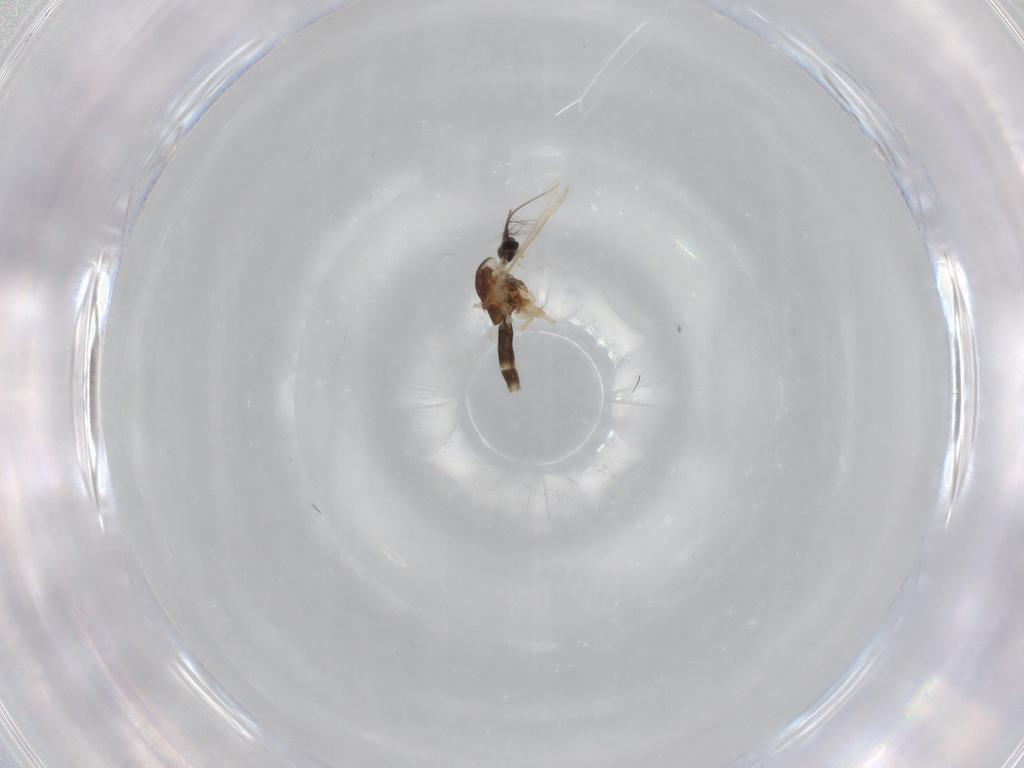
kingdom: Animalia
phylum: Arthropoda
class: Insecta
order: Diptera
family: Chironomidae
